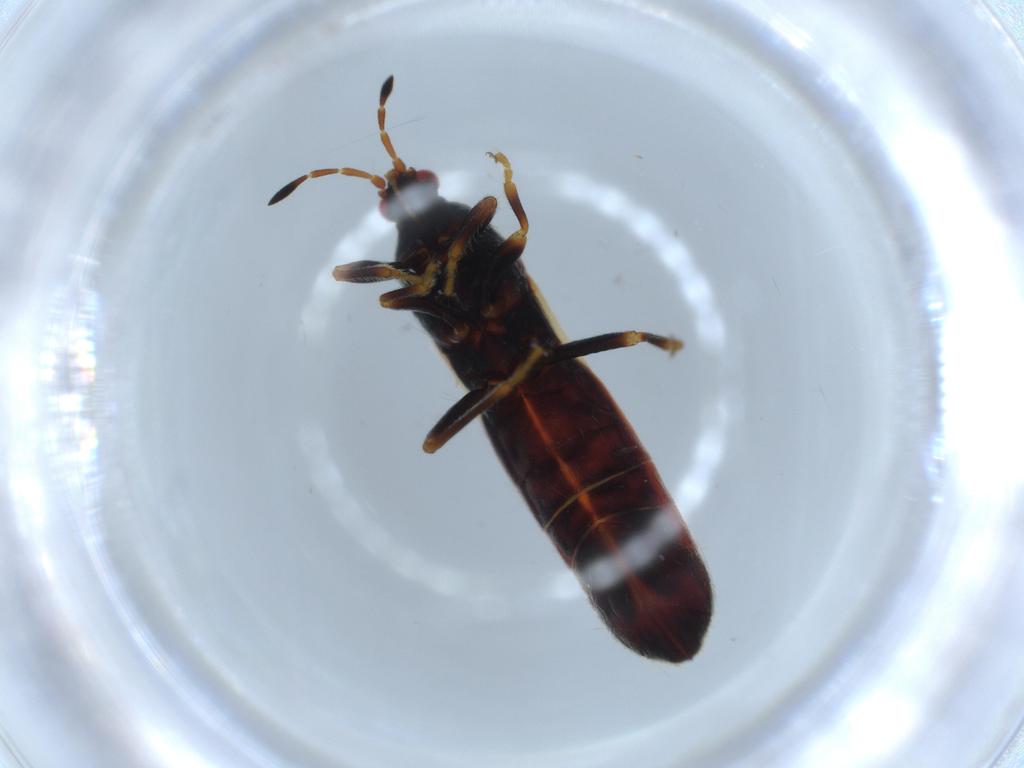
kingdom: Animalia
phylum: Arthropoda
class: Insecta
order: Hemiptera
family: Blissidae
